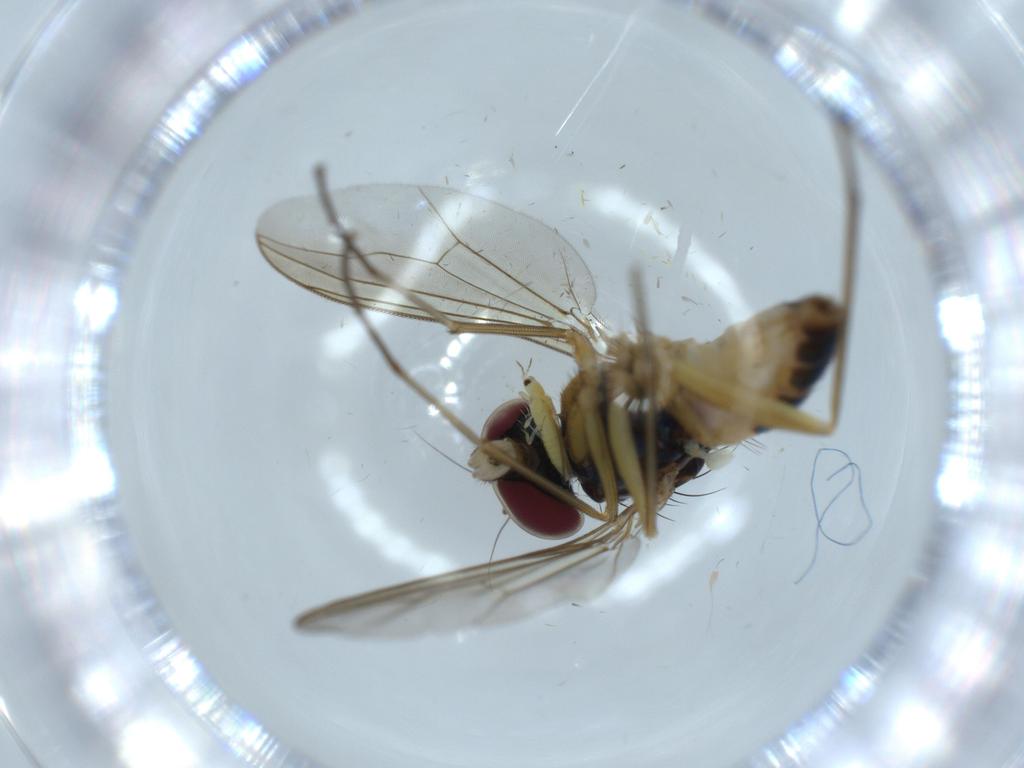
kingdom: Animalia
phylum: Arthropoda
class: Insecta
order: Diptera
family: Dolichopodidae
